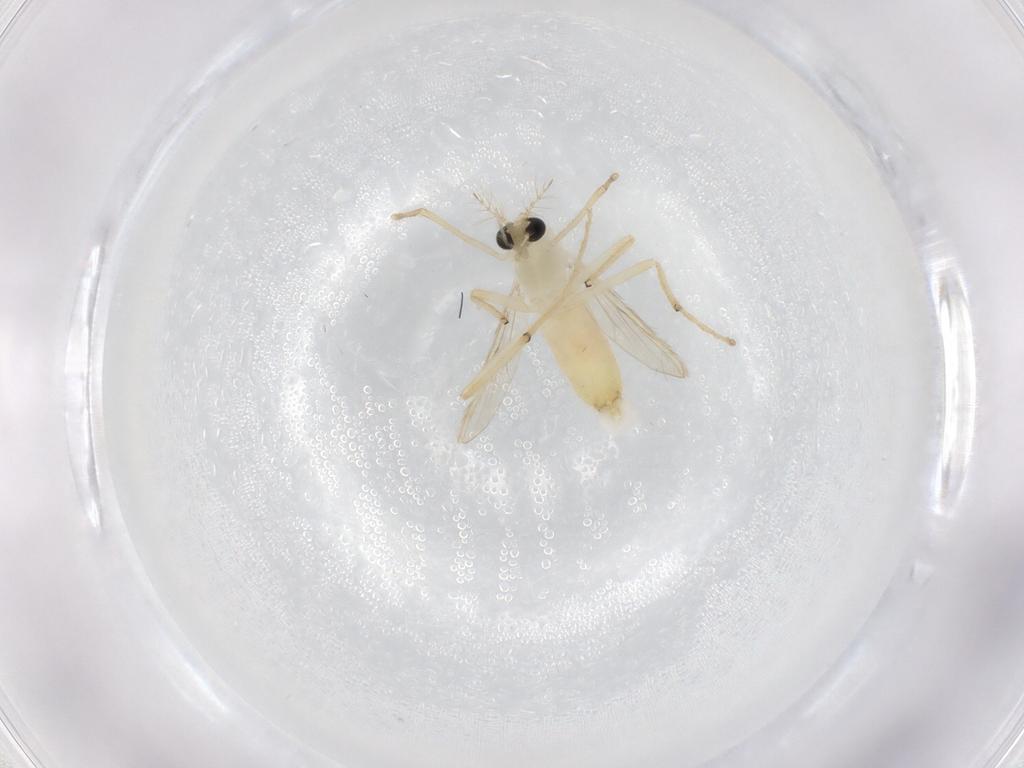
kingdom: Animalia
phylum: Arthropoda
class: Insecta
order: Diptera
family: Chironomidae
